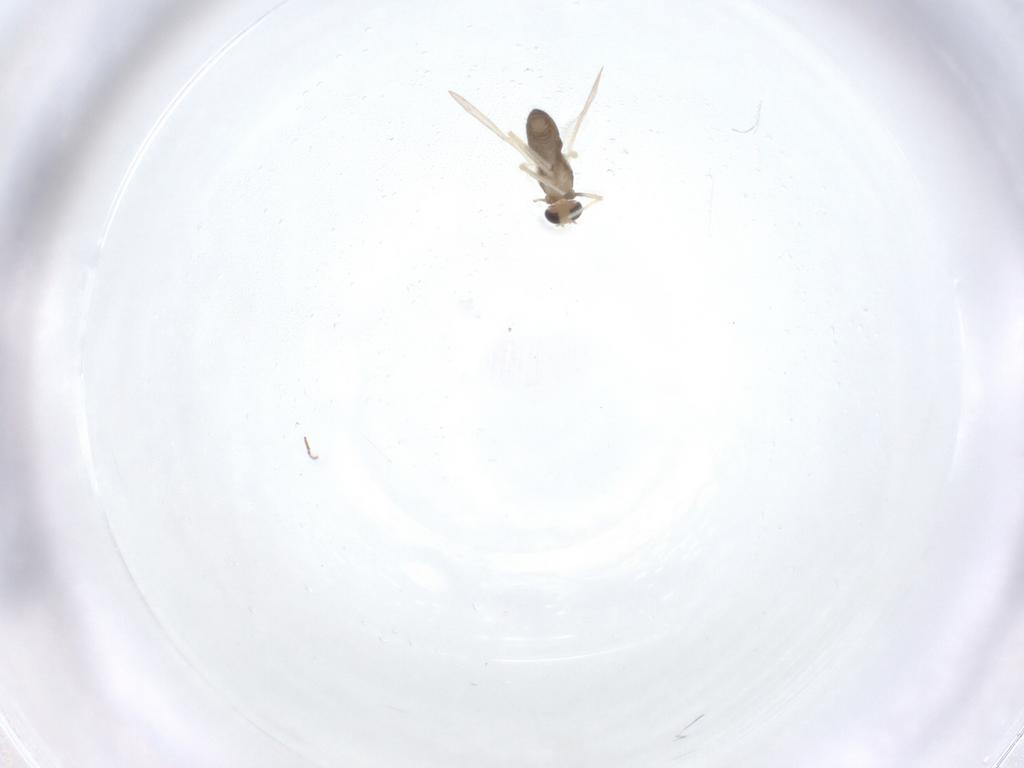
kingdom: Animalia
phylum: Arthropoda
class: Insecta
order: Diptera
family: Chironomidae
